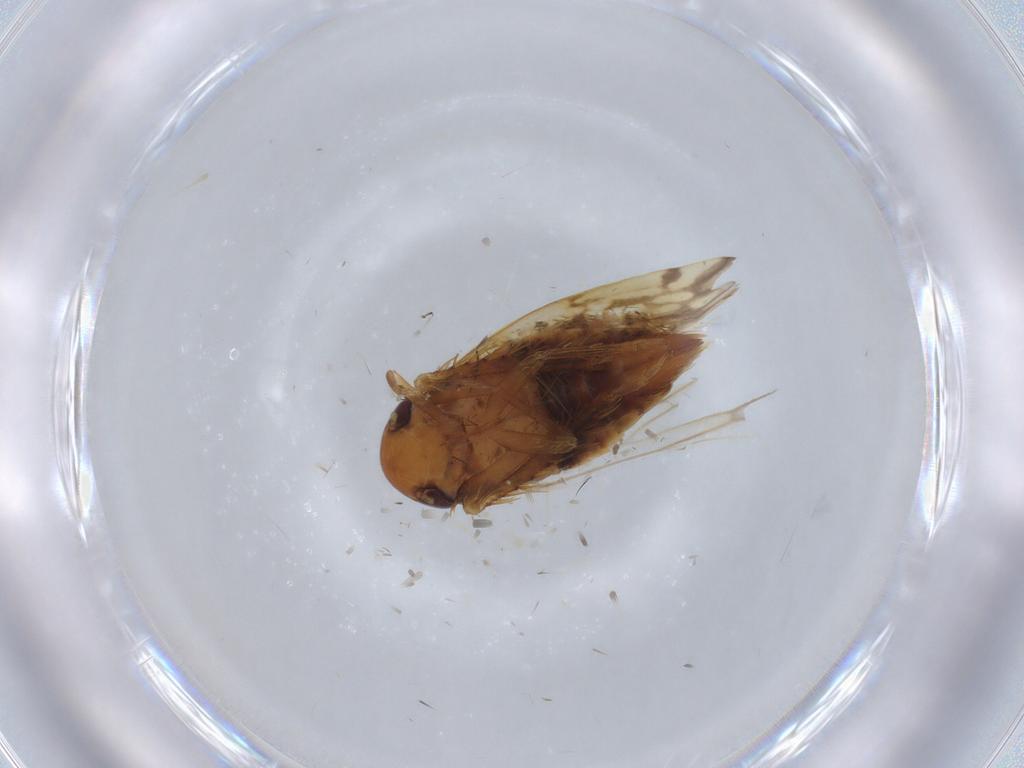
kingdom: Animalia
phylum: Arthropoda
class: Insecta
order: Hemiptera
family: Cicadellidae
